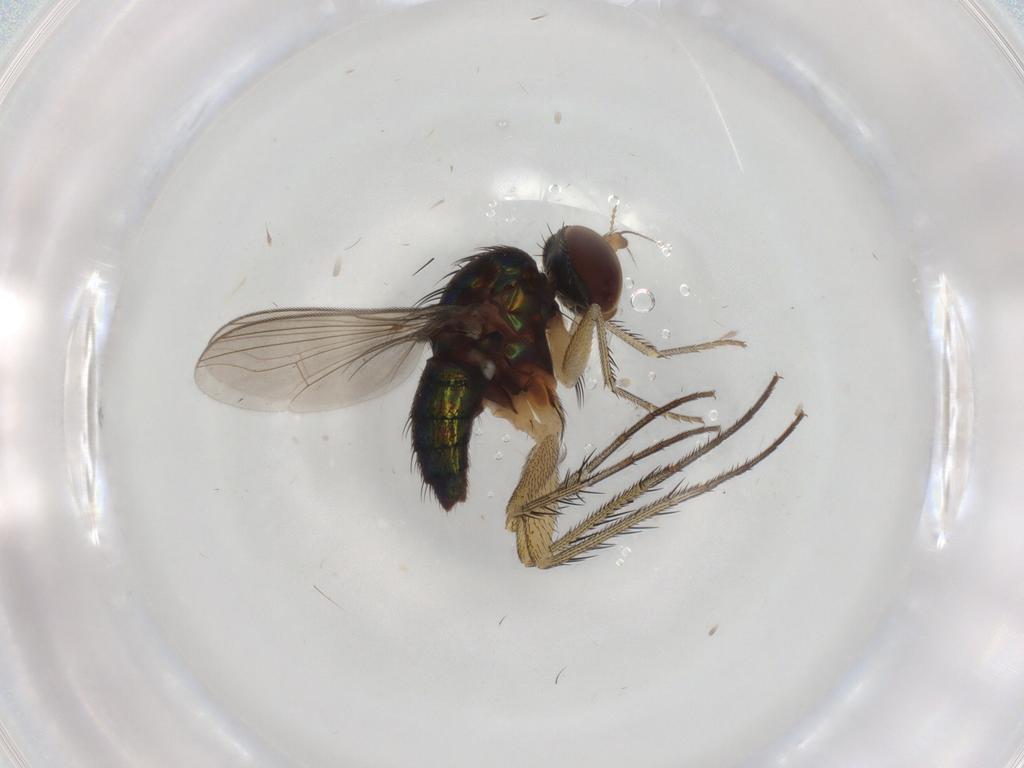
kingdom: Animalia
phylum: Arthropoda
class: Insecta
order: Diptera
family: Dolichopodidae
